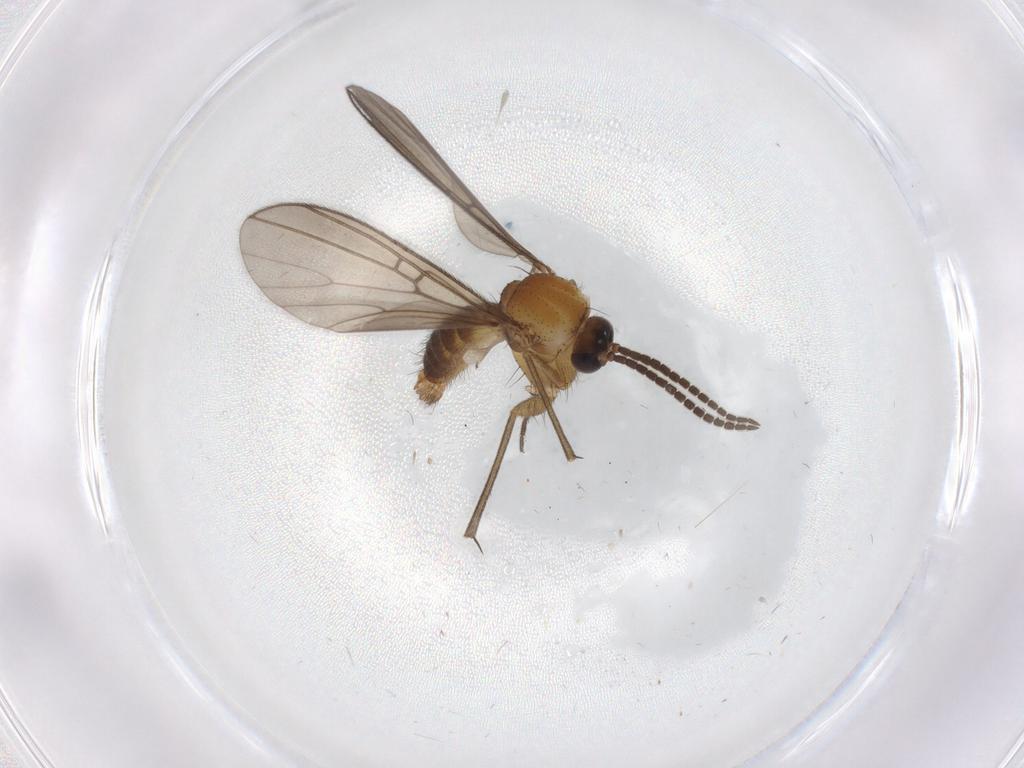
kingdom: Animalia
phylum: Arthropoda
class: Insecta
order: Diptera
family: Drosophilidae
